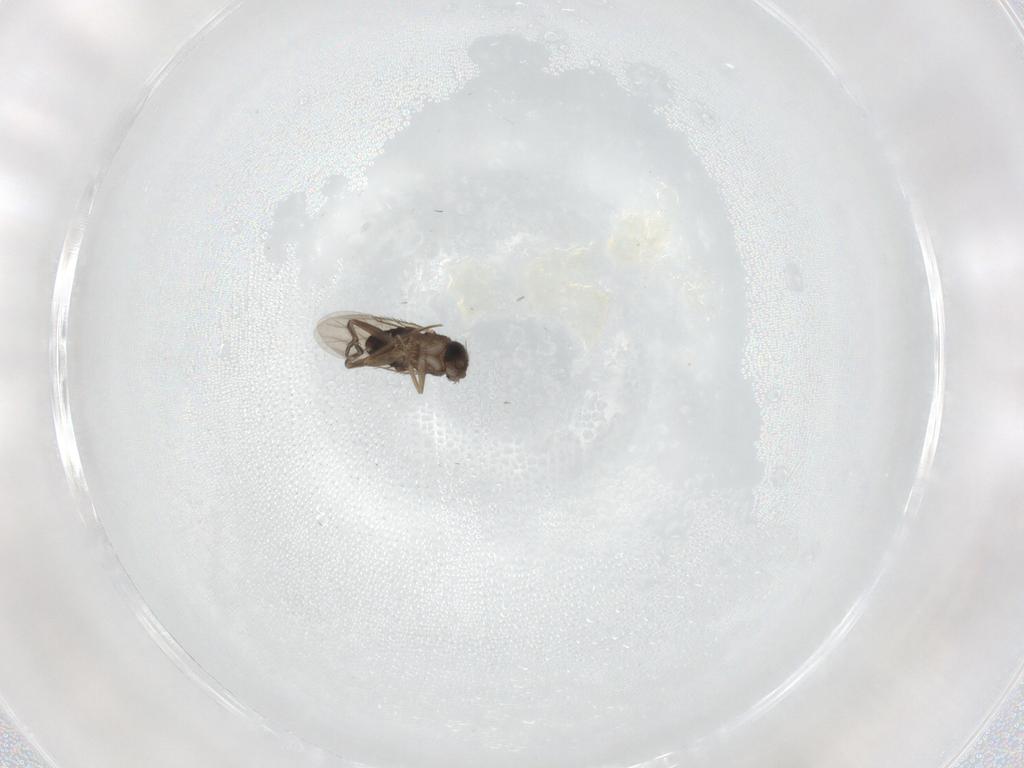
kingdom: Animalia
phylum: Arthropoda
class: Insecta
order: Diptera
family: Phoridae
